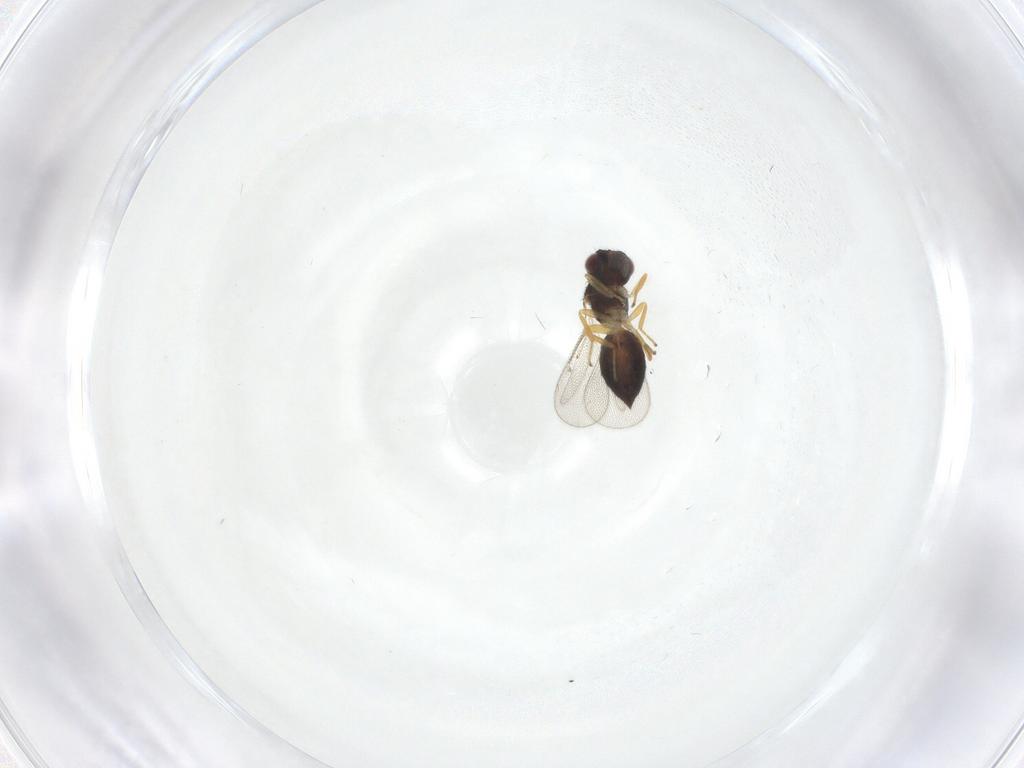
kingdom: Animalia
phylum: Arthropoda
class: Insecta
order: Hymenoptera
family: Eulophidae
